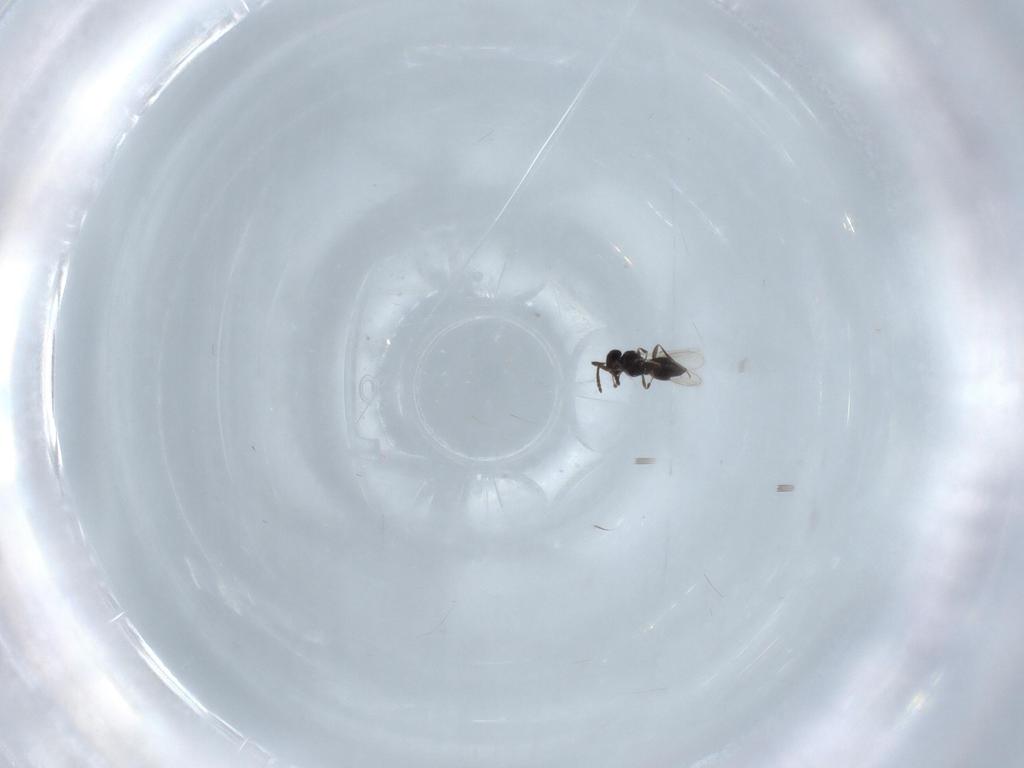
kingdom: Animalia
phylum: Arthropoda
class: Insecta
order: Hymenoptera
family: Scelionidae
